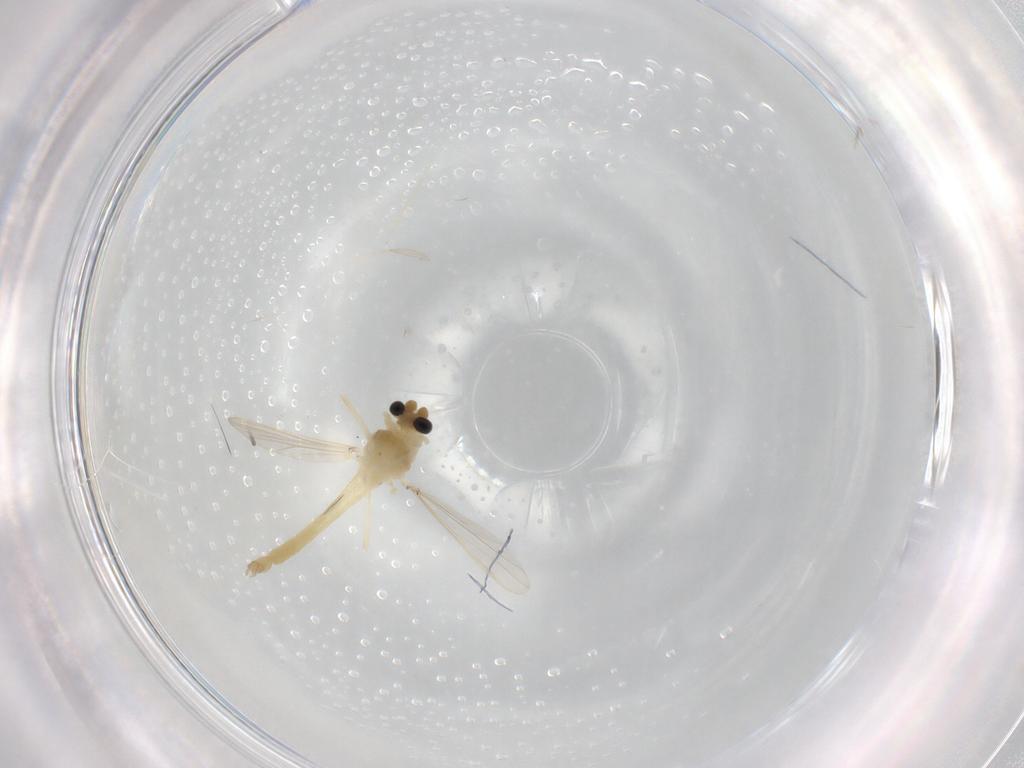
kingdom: Animalia
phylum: Arthropoda
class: Insecta
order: Diptera
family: Chironomidae
